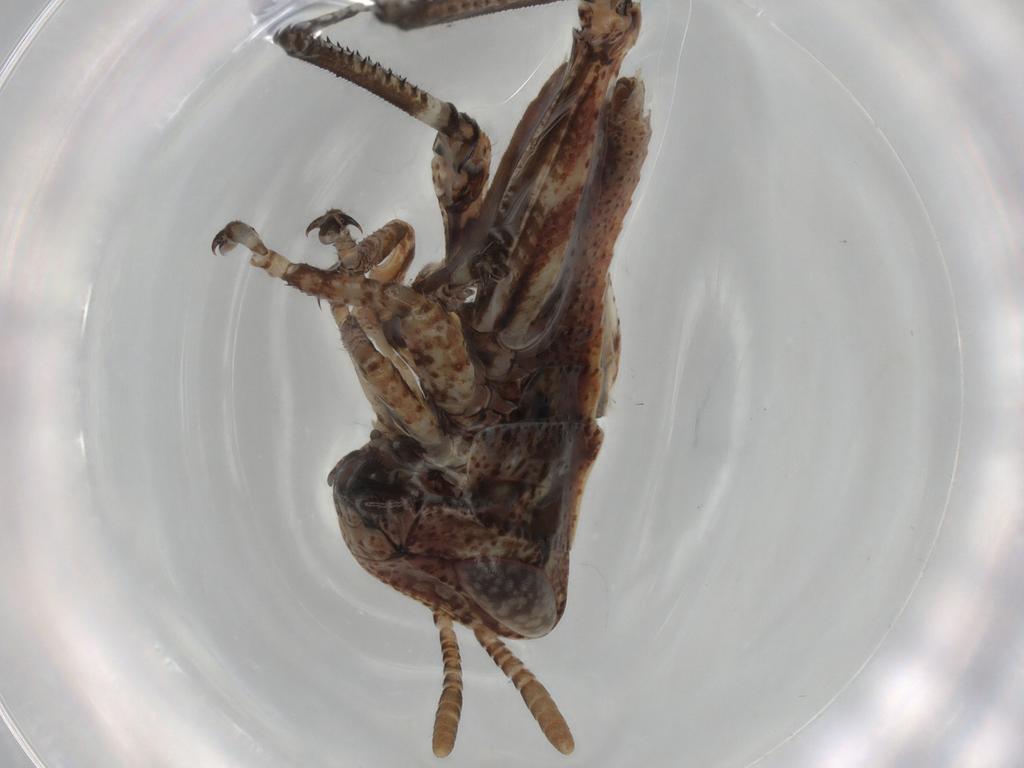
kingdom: Animalia
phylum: Arthropoda
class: Insecta
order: Orthoptera
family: Acrididae
